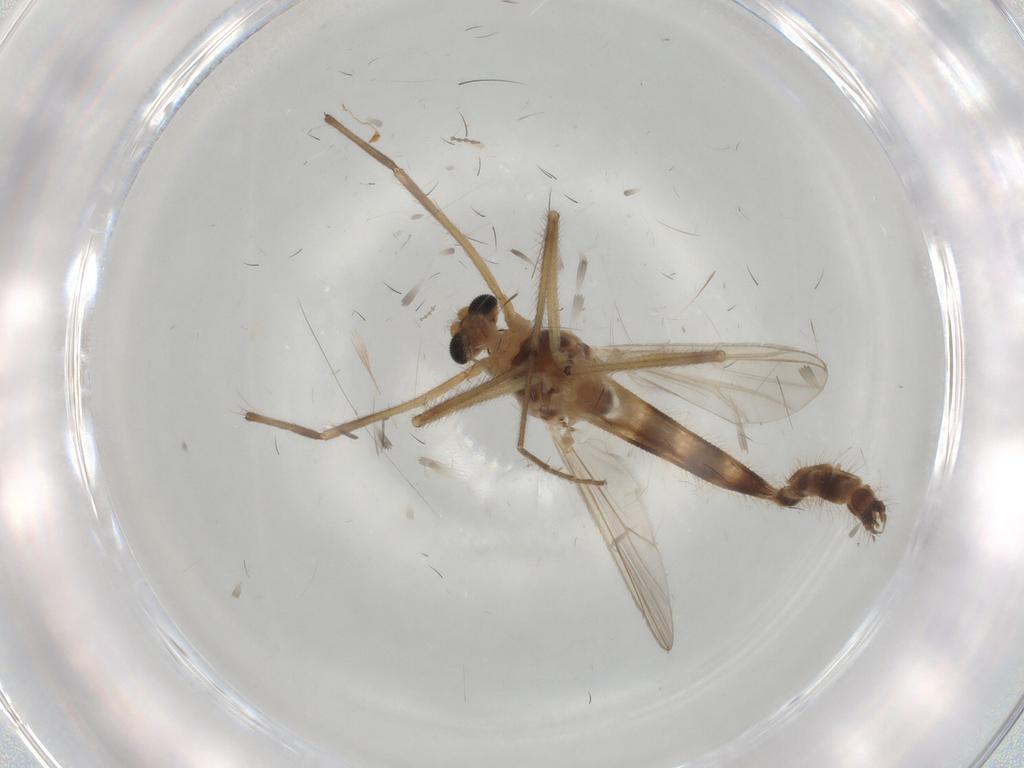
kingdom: Animalia
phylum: Arthropoda
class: Insecta
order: Diptera
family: Chironomidae
